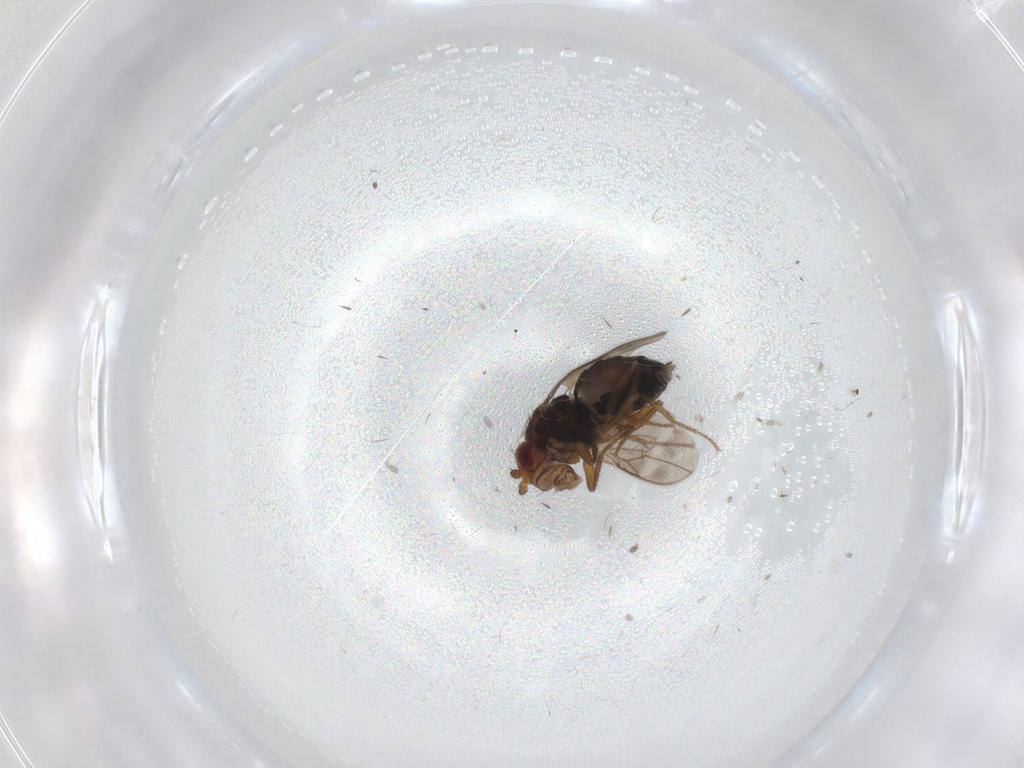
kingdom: Animalia
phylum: Arthropoda
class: Insecta
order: Diptera
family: Sphaeroceridae
